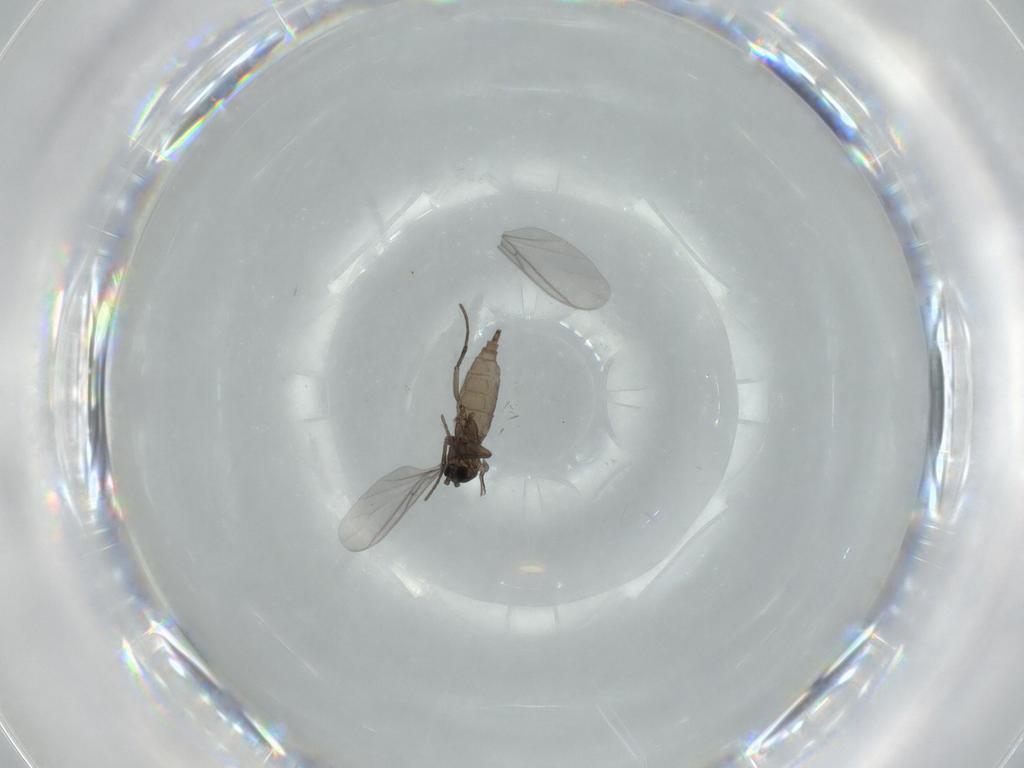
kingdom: Animalia
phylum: Arthropoda
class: Insecta
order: Diptera
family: Sciaridae
